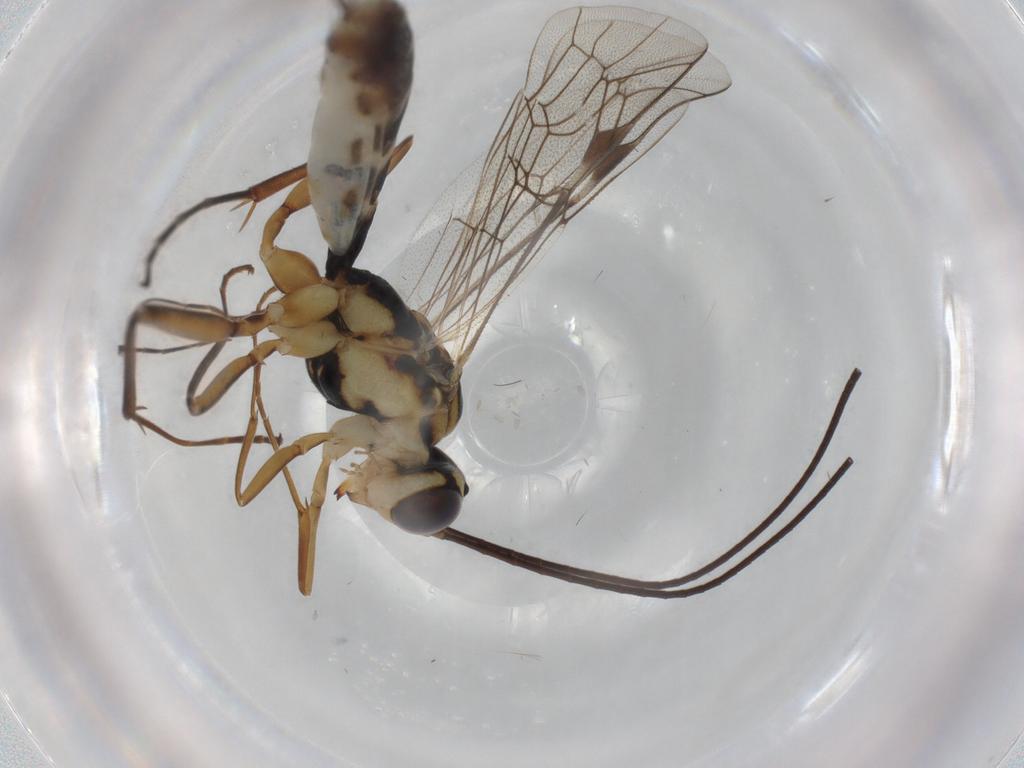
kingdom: Animalia
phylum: Arthropoda
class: Insecta
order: Hymenoptera
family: Ichneumonidae
